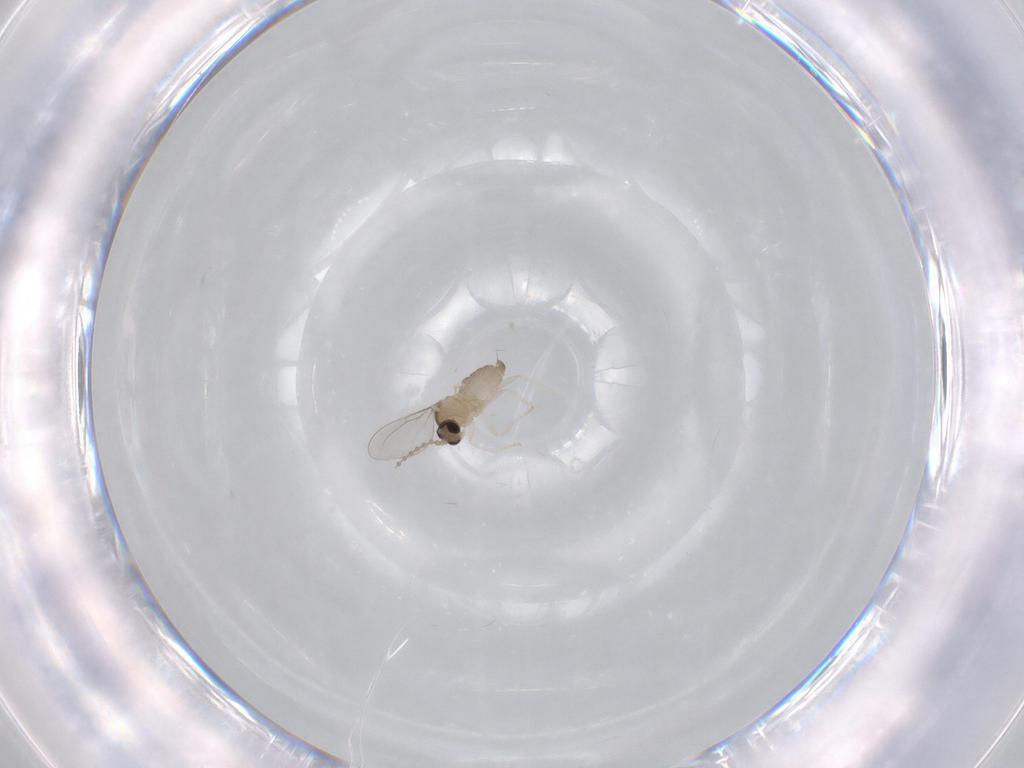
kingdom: Animalia
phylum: Arthropoda
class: Insecta
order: Diptera
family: Cecidomyiidae
